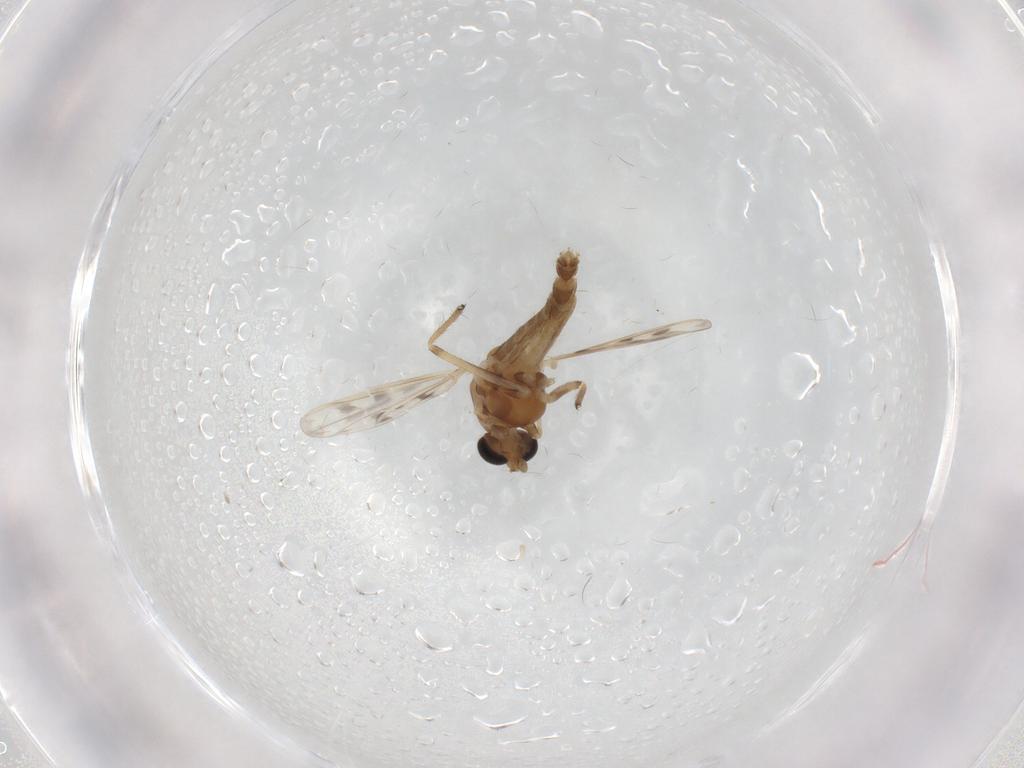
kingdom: Animalia
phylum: Arthropoda
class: Insecta
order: Diptera
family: Chironomidae
